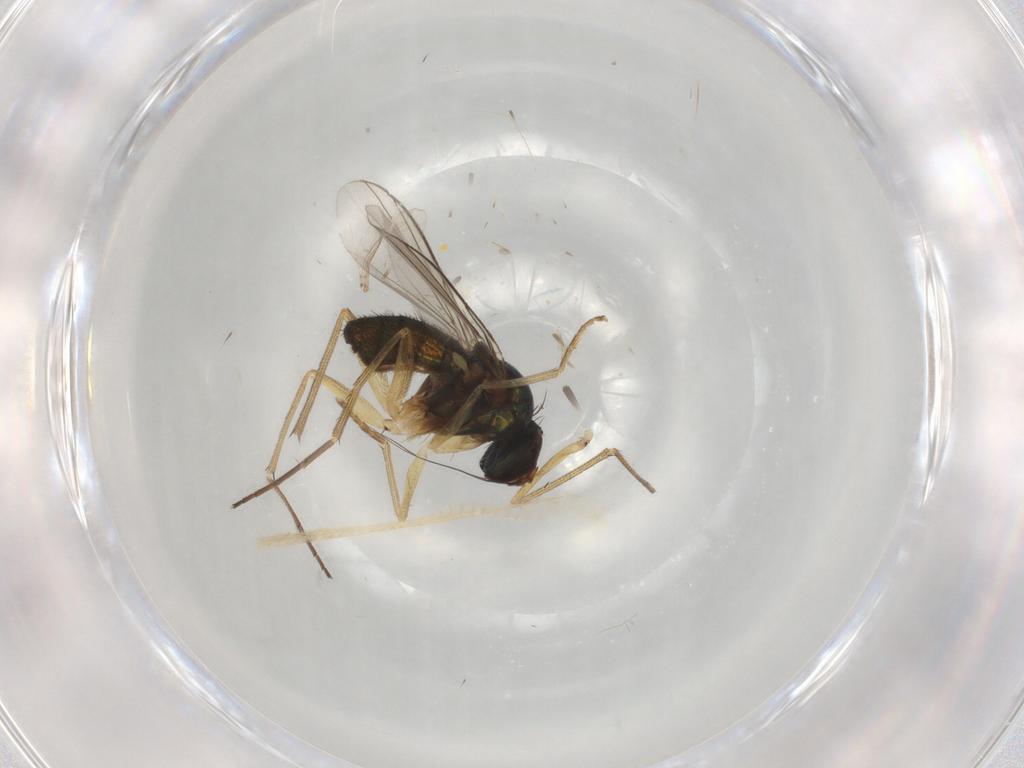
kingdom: Animalia
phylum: Arthropoda
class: Insecta
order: Diptera
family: Dolichopodidae
